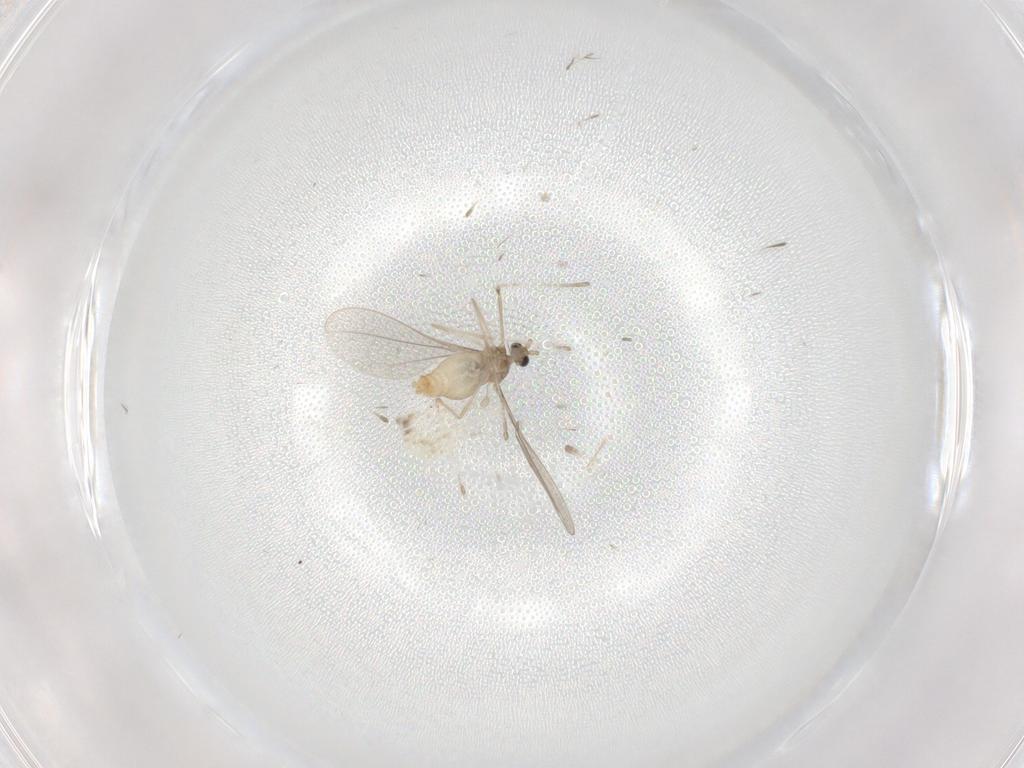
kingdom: Animalia
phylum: Arthropoda
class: Insecta
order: Diptera
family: Cecidomyiidae
